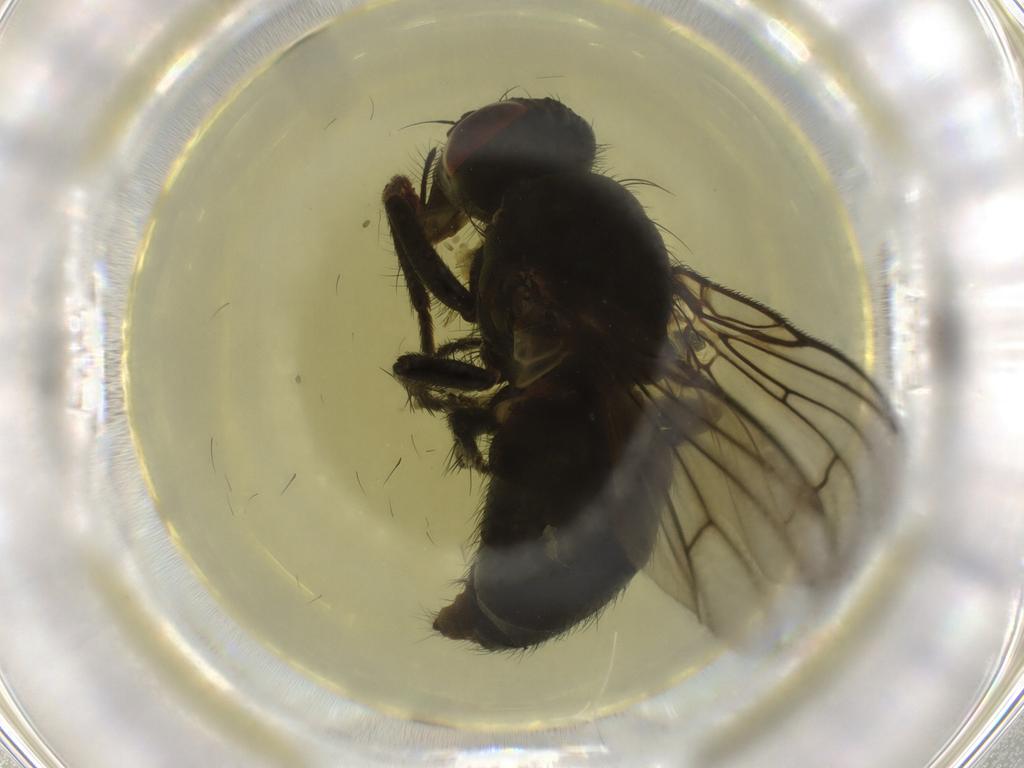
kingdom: Animalia
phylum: Arthropoda
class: Insecta
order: Diptera
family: Muscidae
